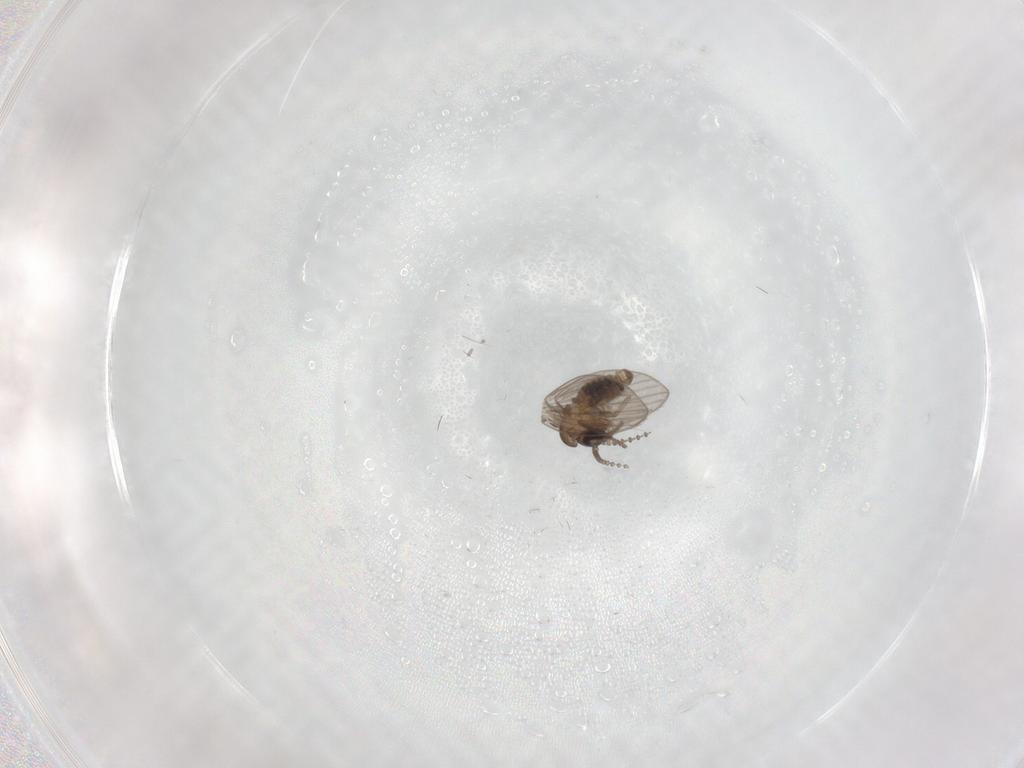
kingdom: Animalia
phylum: Arthropoda
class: Insecta
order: Diptera
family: Psychodidae
